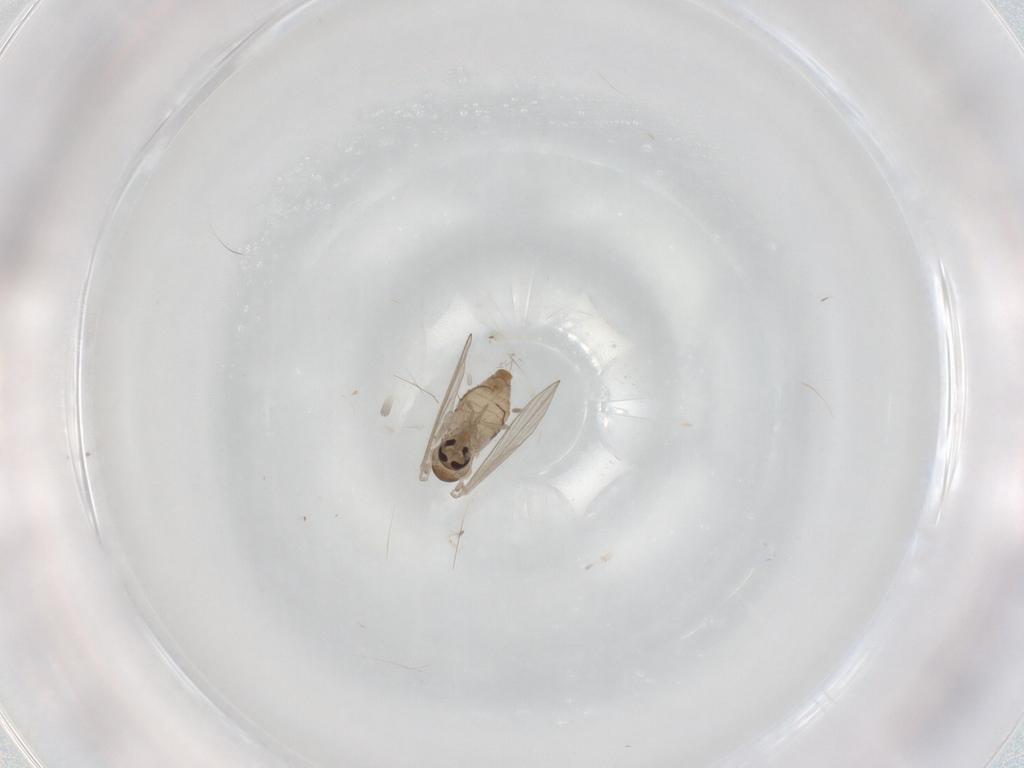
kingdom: Animalia
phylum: Arthropoda
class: Insecta
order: Diptera
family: Psychodidae
